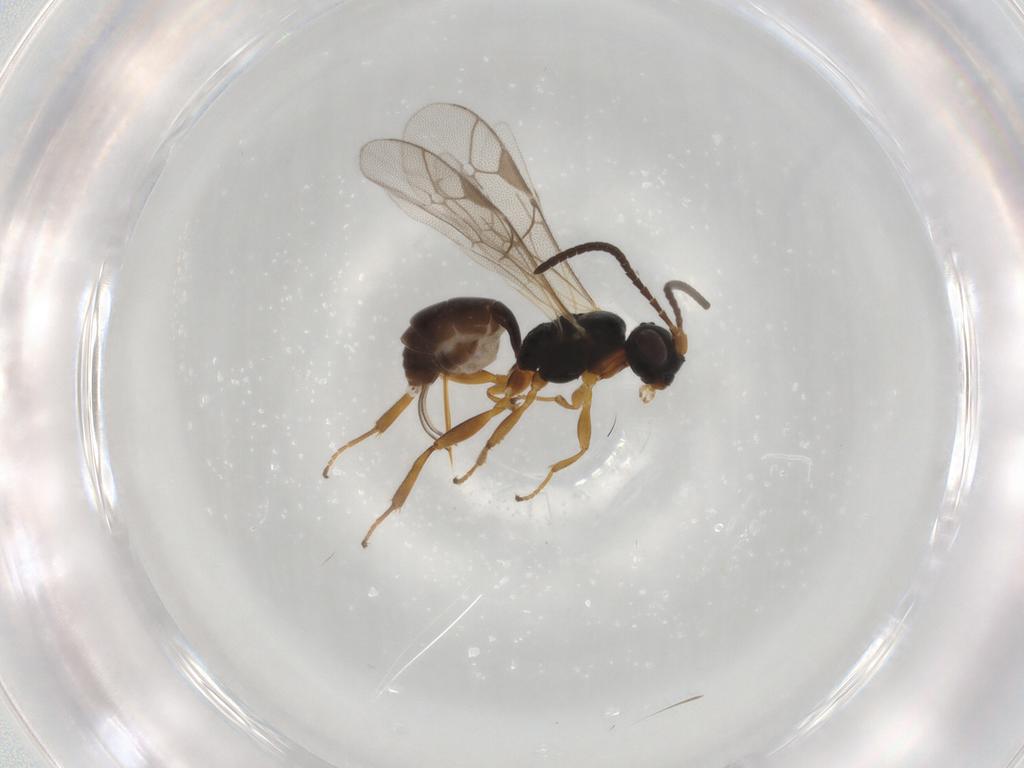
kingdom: Animalia
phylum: Arthropoda
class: Insecta
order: Hymenoptera
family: Ichneumonidae
